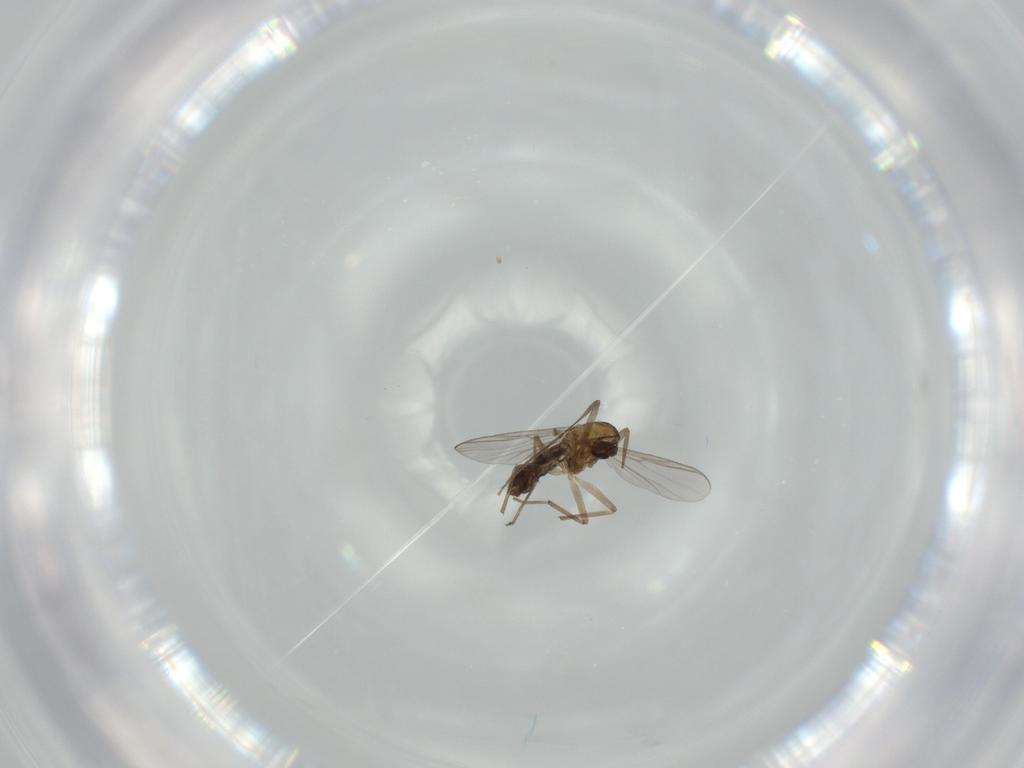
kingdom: Animalia
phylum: Arthropoda
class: Insecta
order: Diptera
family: Chironomidae
